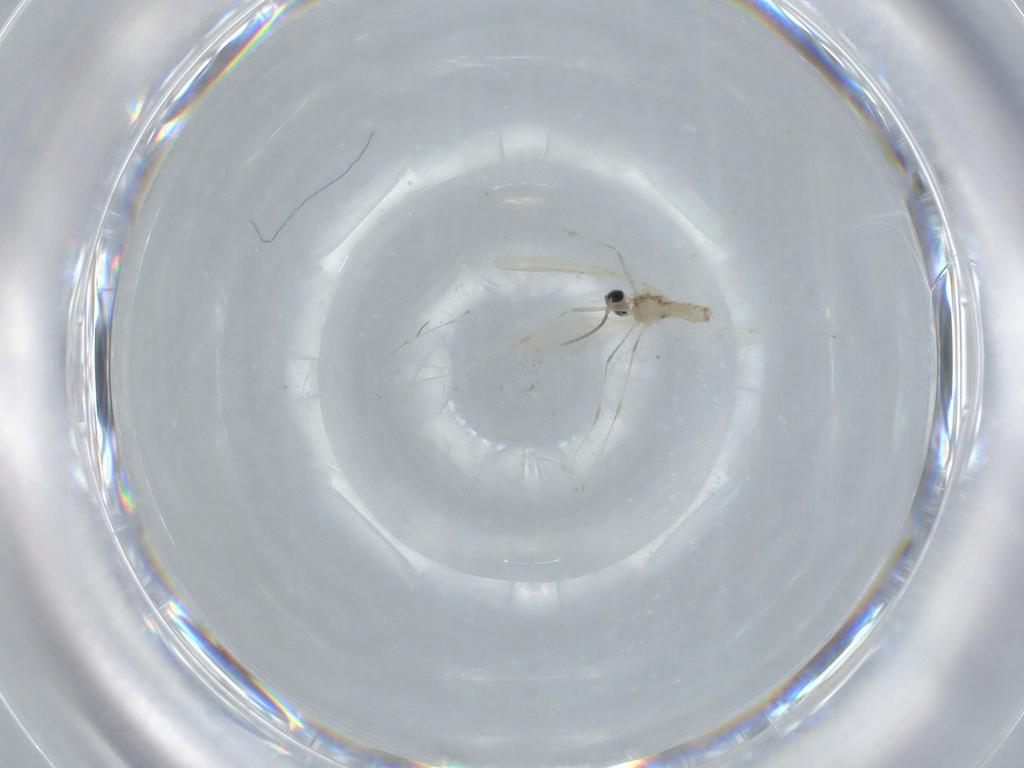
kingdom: Animalia
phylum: Arthropoda
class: Insecta
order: Diptera
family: Cecidomyiidae
